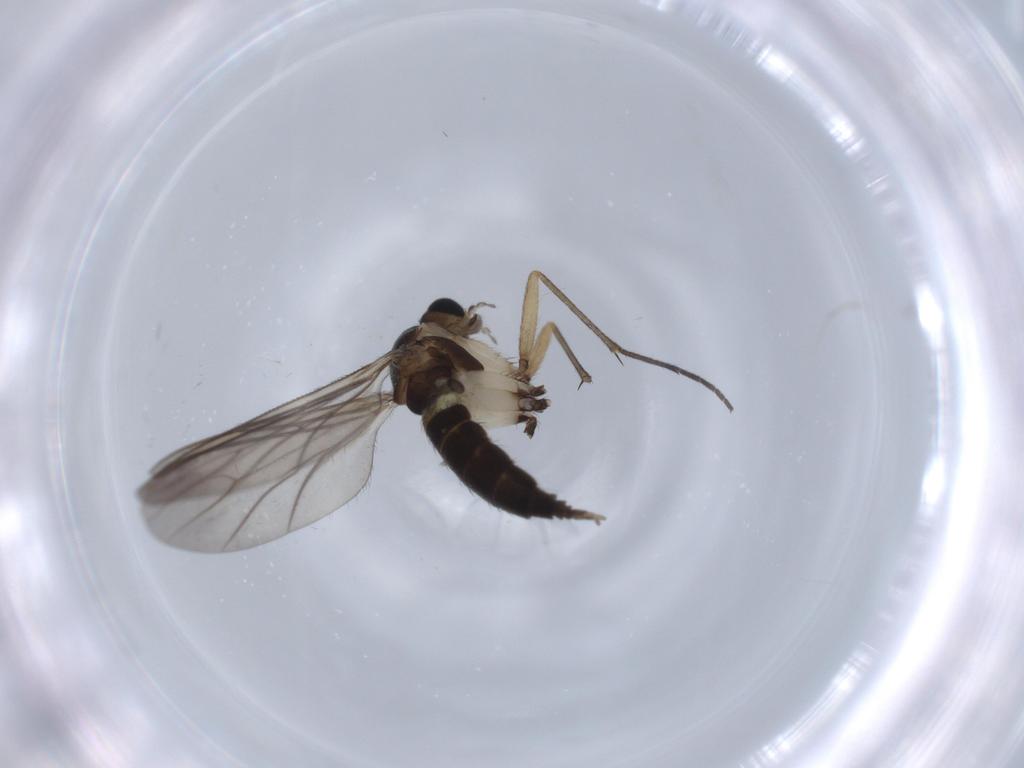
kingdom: Animalia
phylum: Arthropoda
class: Insecta
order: Diptera
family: Sciaridae
